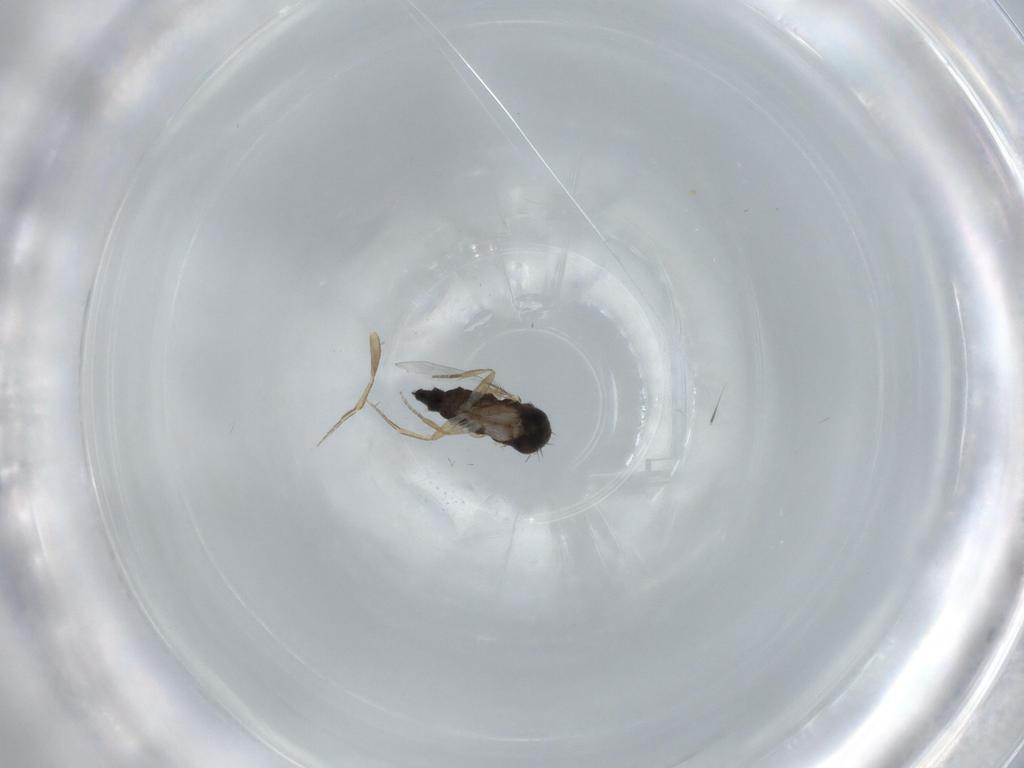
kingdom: Animalia
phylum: Arthropoda
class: Insecta
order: Diptera
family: Phoridae
